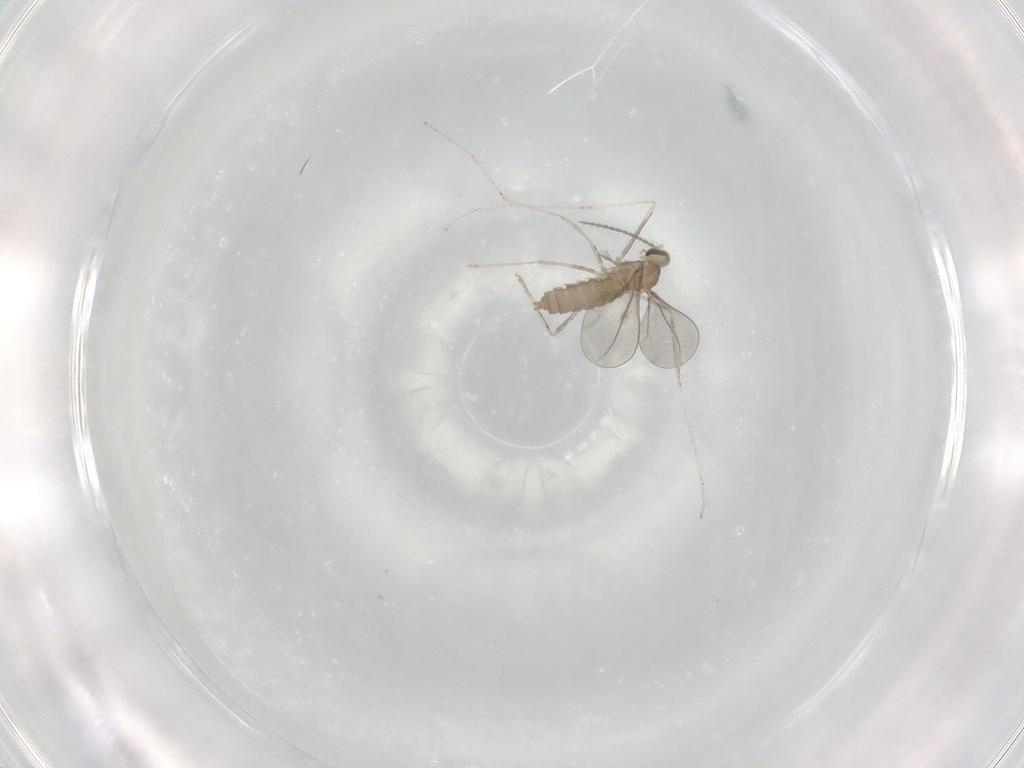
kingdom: Animalia
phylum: Arthropoda
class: Insecta
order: Diptera
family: Cecidomyiidae
